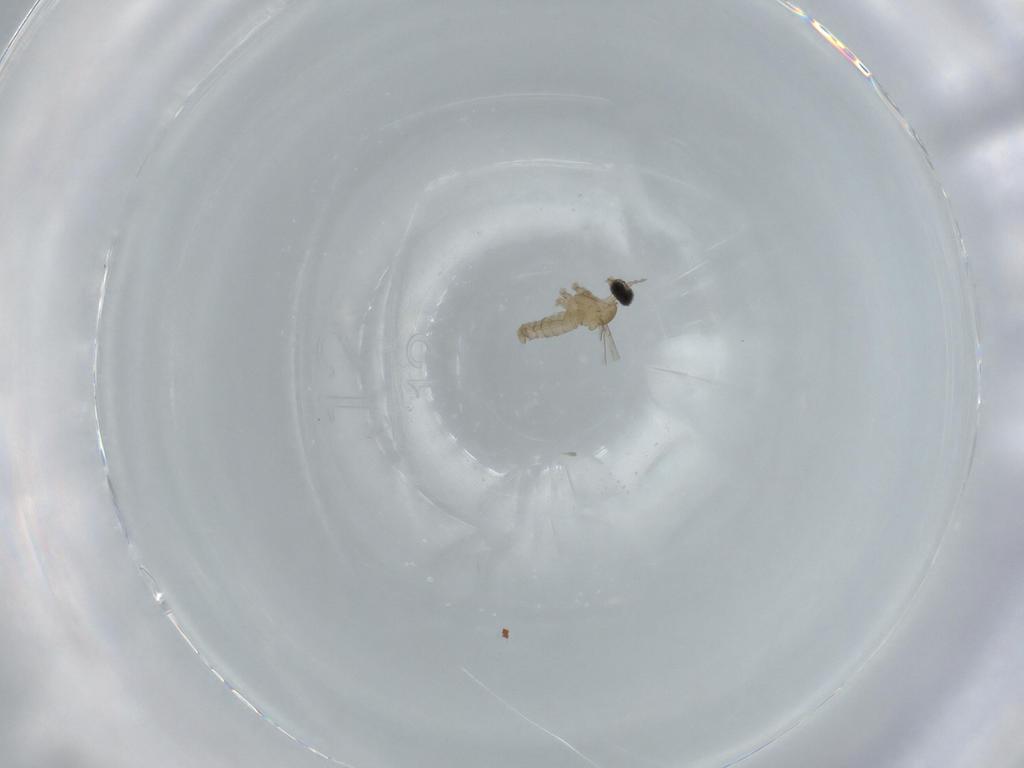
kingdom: Animalia
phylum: Arthropoda
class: Insecta
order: Diptera
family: Cecidomyiidae
